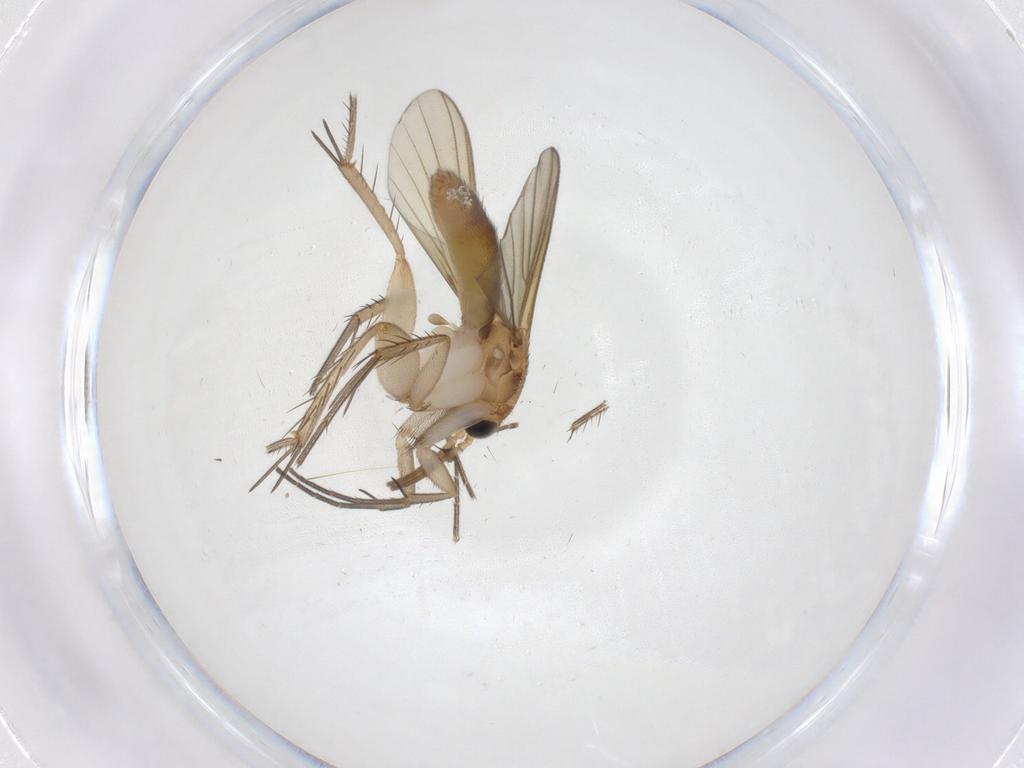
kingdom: Animalia
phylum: Arthropoda
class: Insecta
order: Diptera
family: Mycetophilidae
